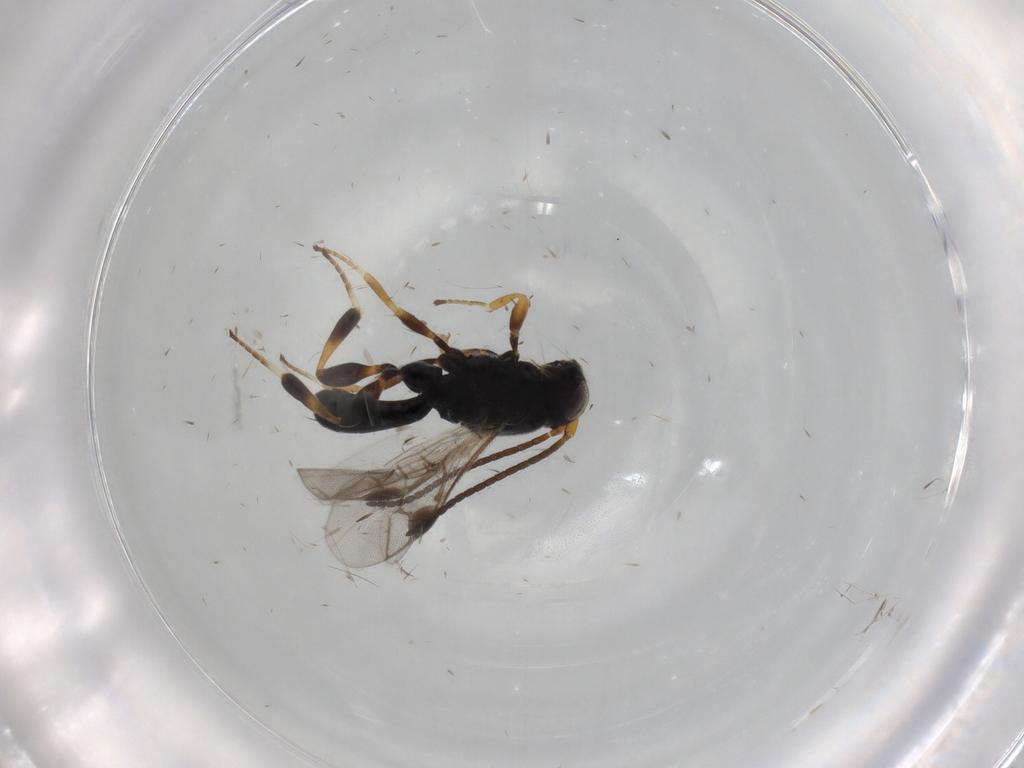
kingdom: Animalia
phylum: Arthropoda
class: Insecta
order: Hymenoptera
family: Braconidae
